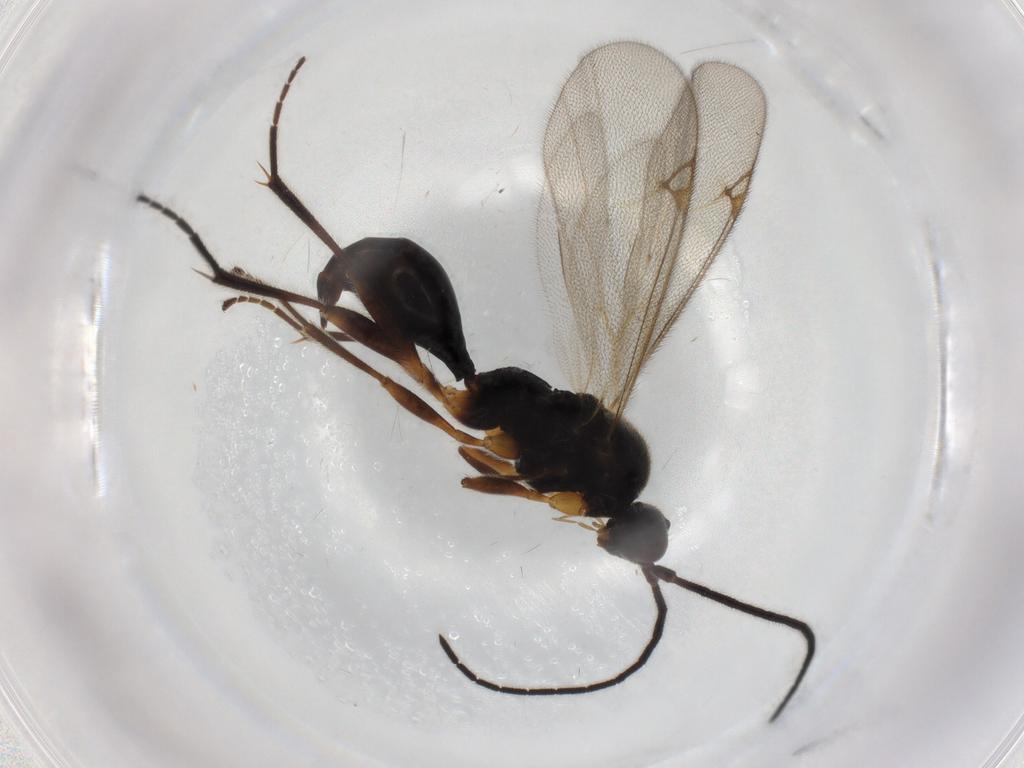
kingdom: Animalia
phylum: Arthropoda
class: Insecta
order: Hymenoptera
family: Proctotrupidae
